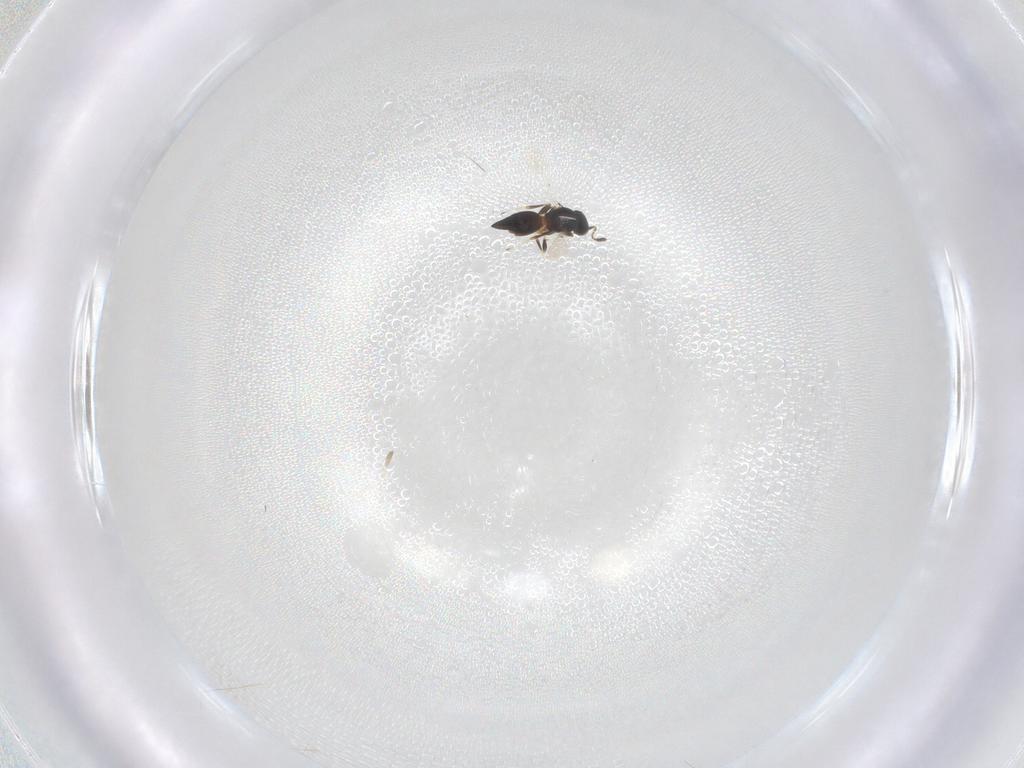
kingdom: Animalia
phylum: Arthropoda
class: Insecta
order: Hymenoptera
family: Mymaridae
